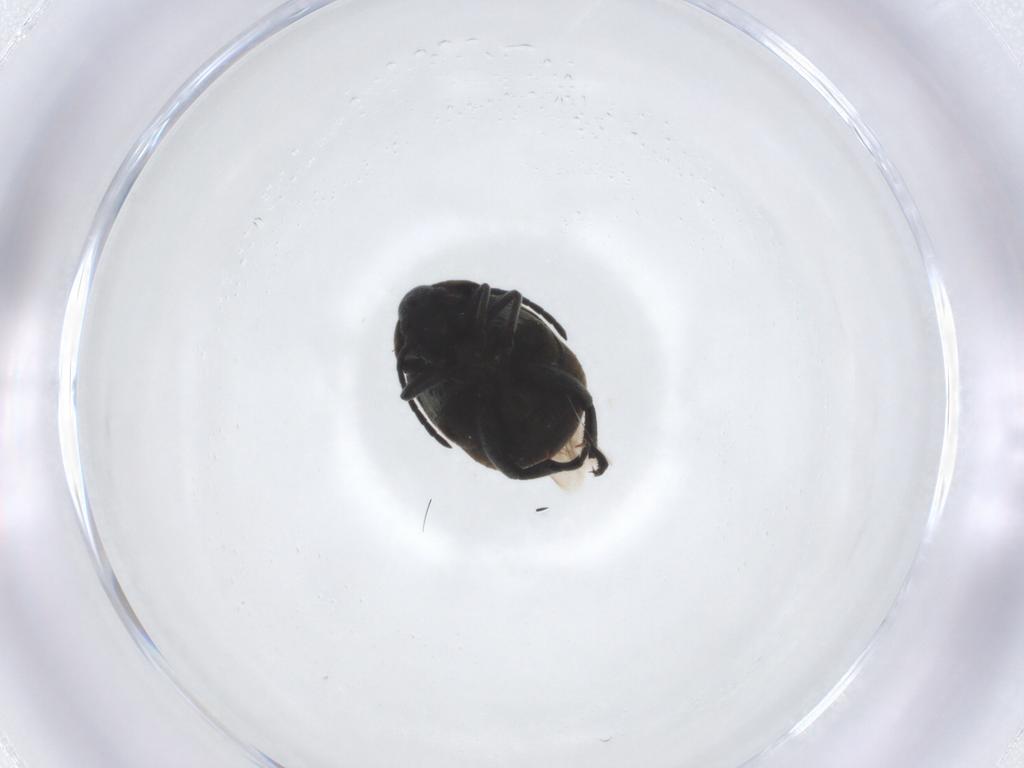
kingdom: Animalia
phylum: Arthropoda
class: Insecta
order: Coleoptera
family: Chrysomelidae
